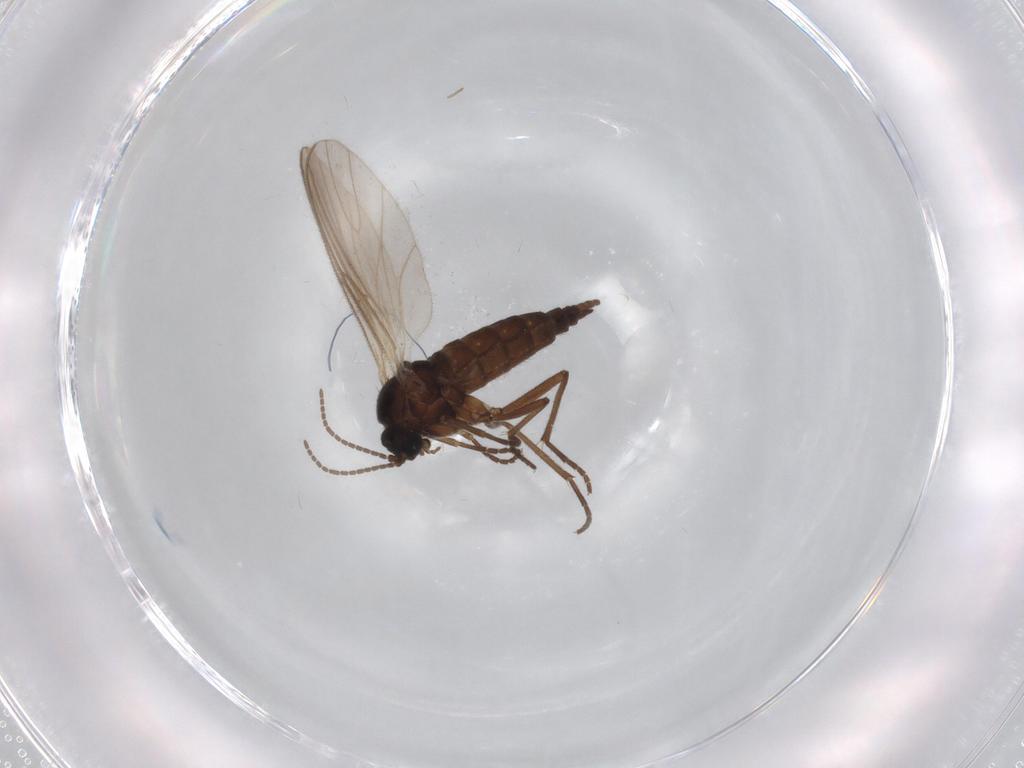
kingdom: Animalia
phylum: Arthropoda
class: Insecta
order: Diptera
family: Sciaridae
